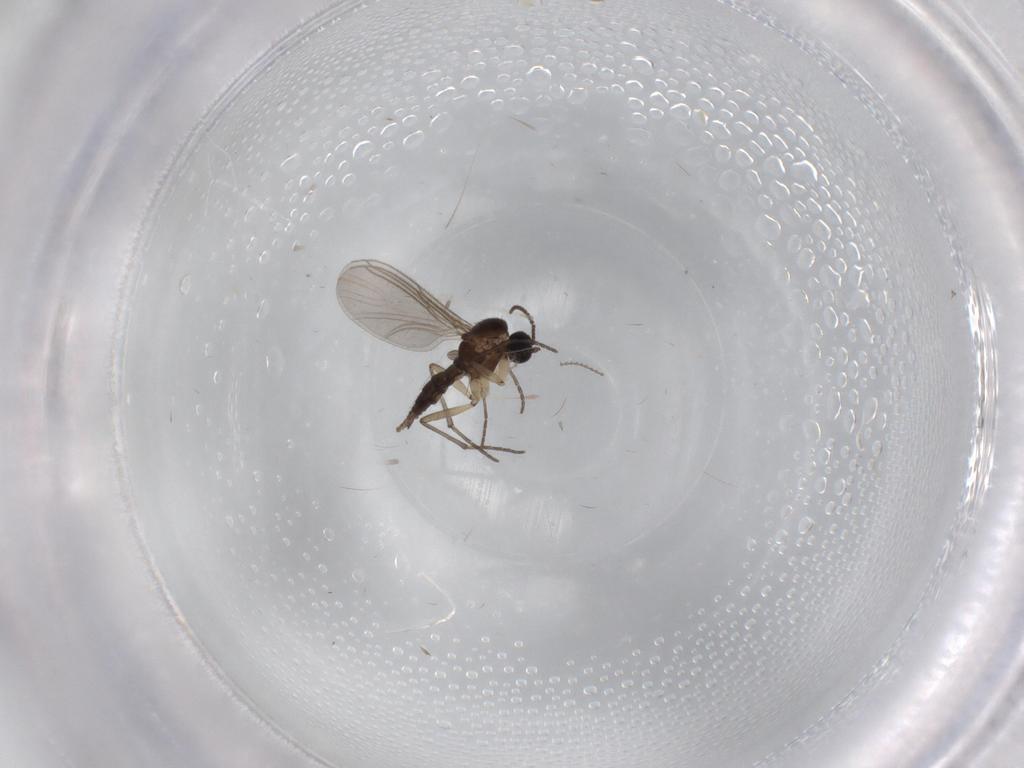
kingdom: Animalia
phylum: Arthropoda
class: Insecta
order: Diptera
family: Sciaridae
